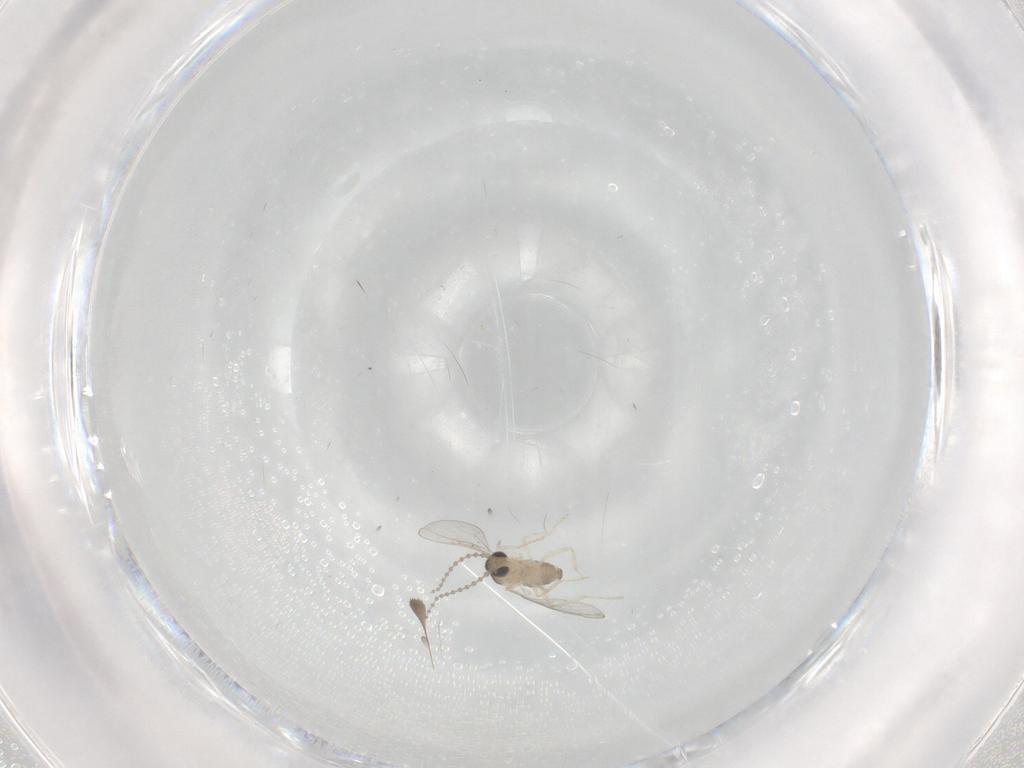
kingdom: Animalia
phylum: Arthropoda
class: Insecta
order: Diptera
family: Cecidomyiidae
